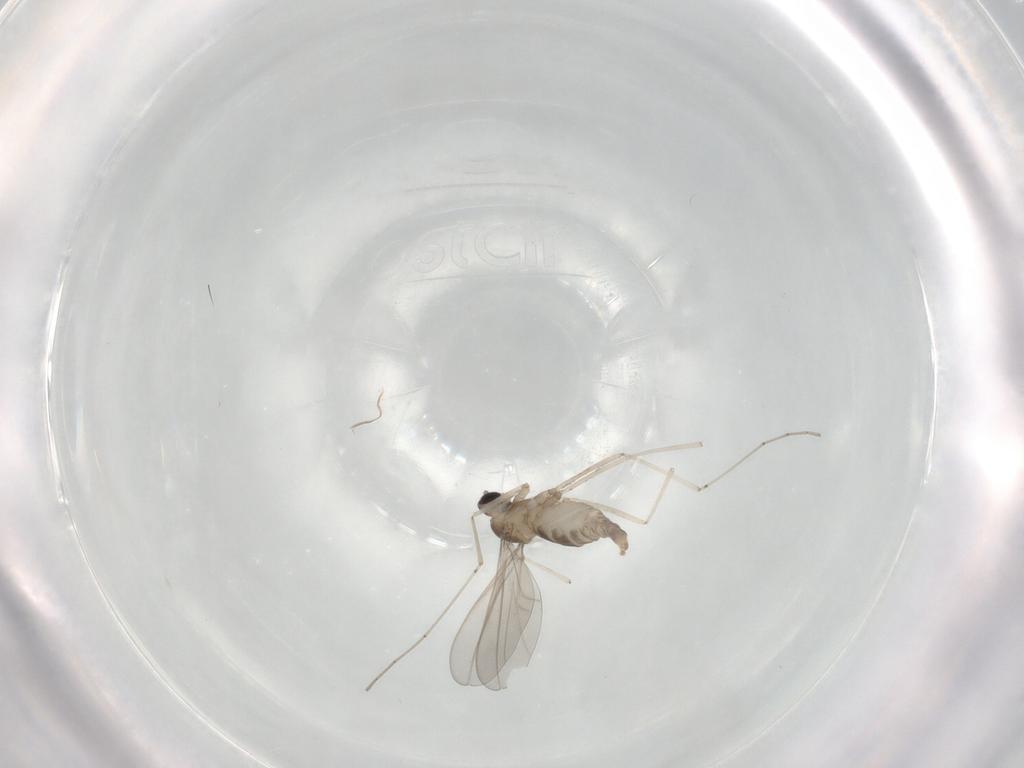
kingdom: Animalia
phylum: Arthropoda
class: Insecta
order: Diptera
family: Cecidomyiidae
